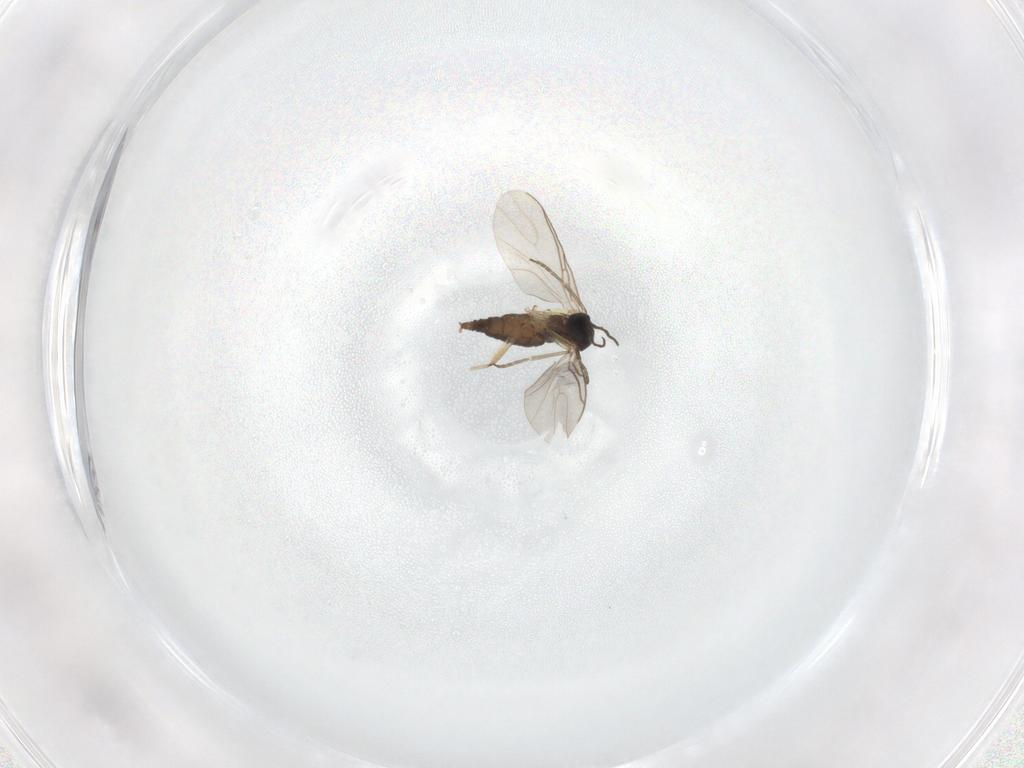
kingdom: Animalia
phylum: Arthropoda
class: Insecta
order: Diptera
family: Sciaridae
